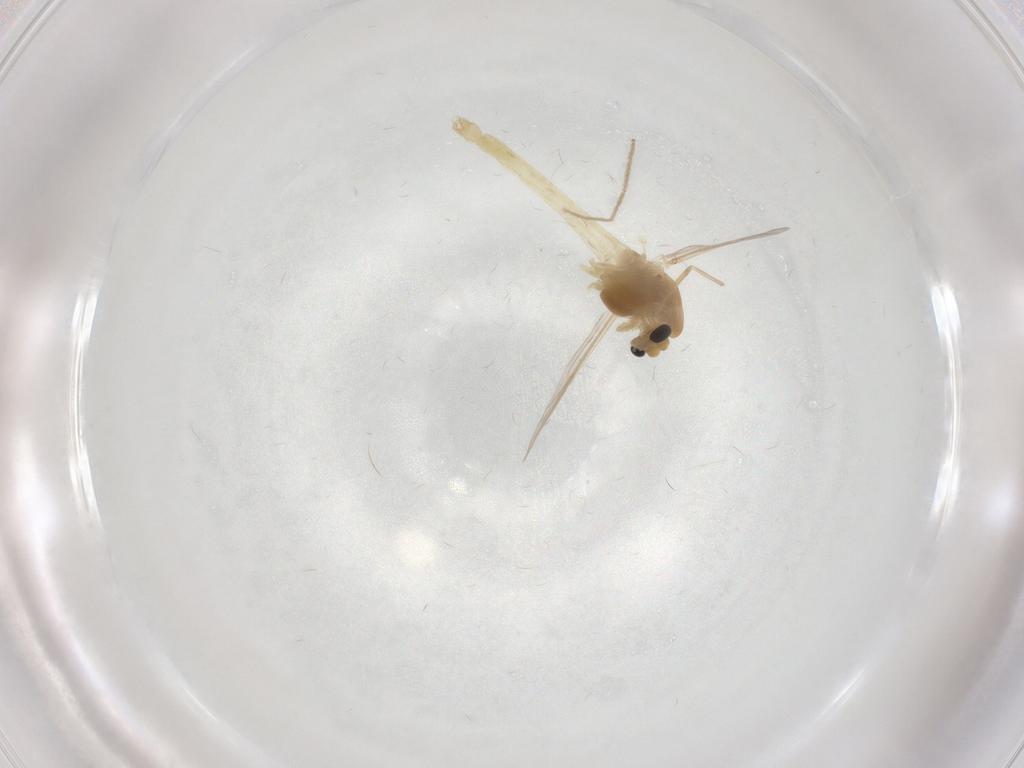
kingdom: Animalia
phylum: Arthropoda
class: Insecta
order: Diptera
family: Chironomidae
